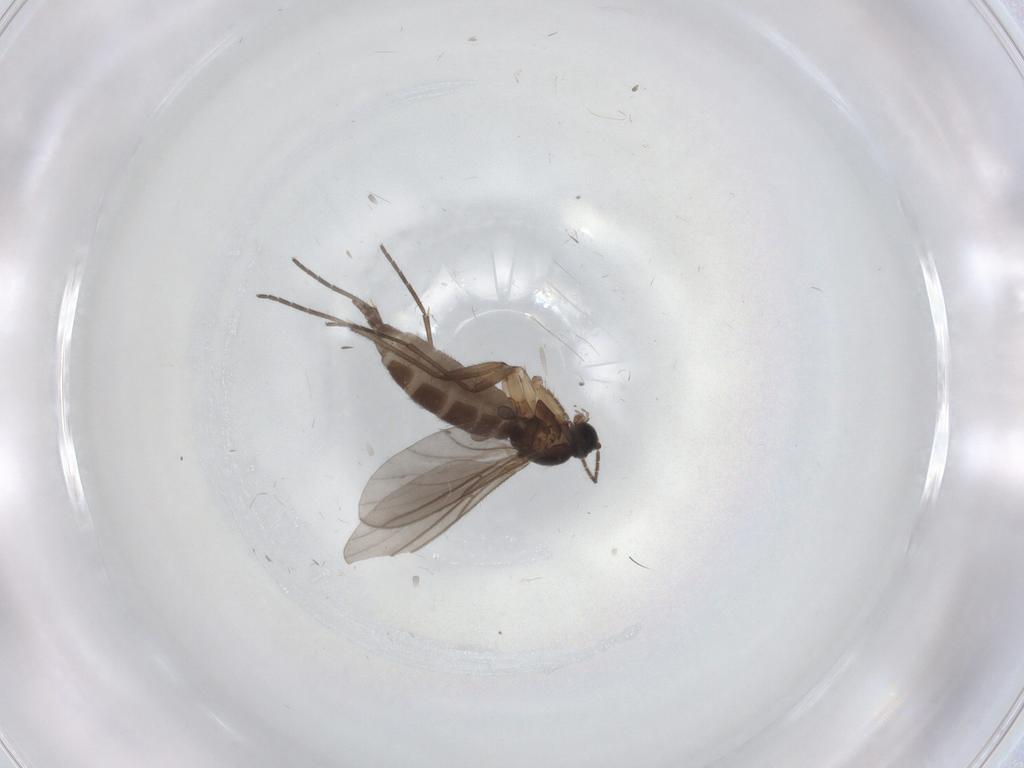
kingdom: Animalia
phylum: Arthropoda
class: Insecta
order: Diptera
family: Sciaridae
